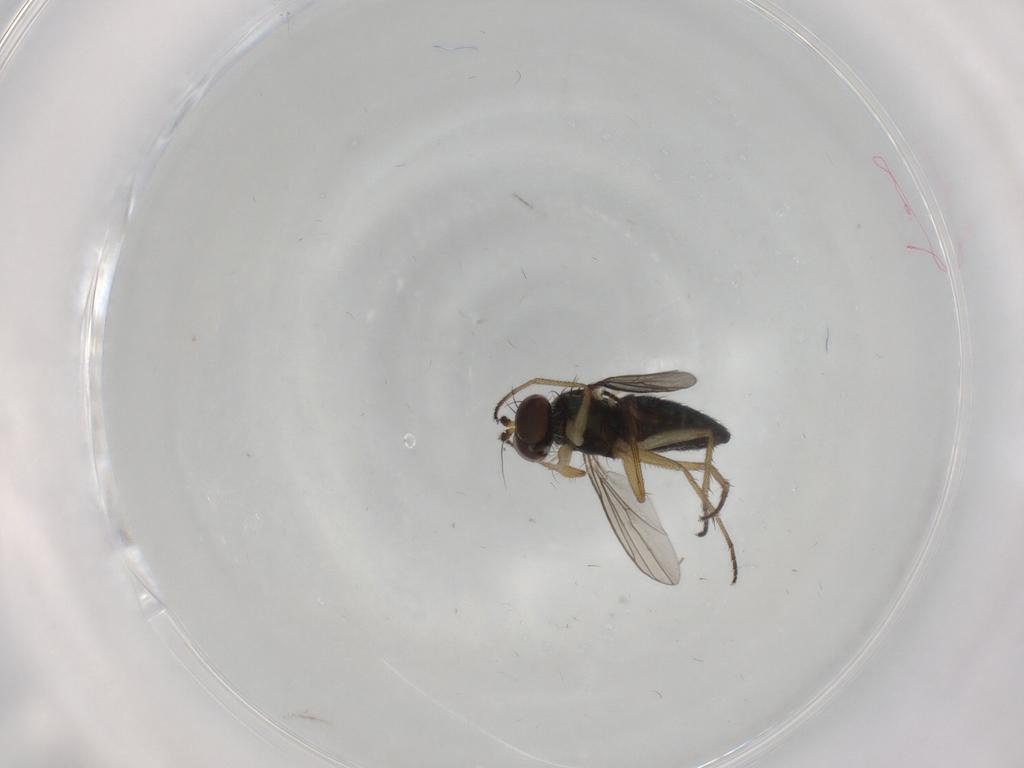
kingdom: Animalia
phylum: Arthropoda
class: Insecta
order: Diptera
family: Dolichopodidae
